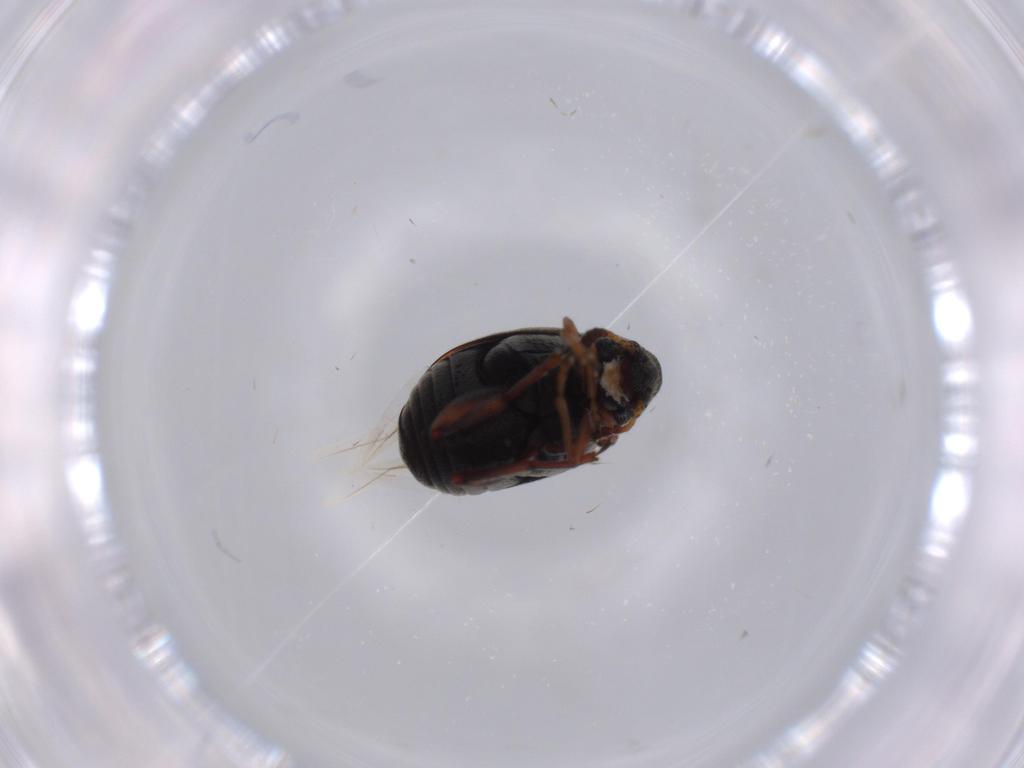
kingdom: Animalia
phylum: Arthropoda
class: Insecta
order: Coleoptera
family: Chrysomelidae
